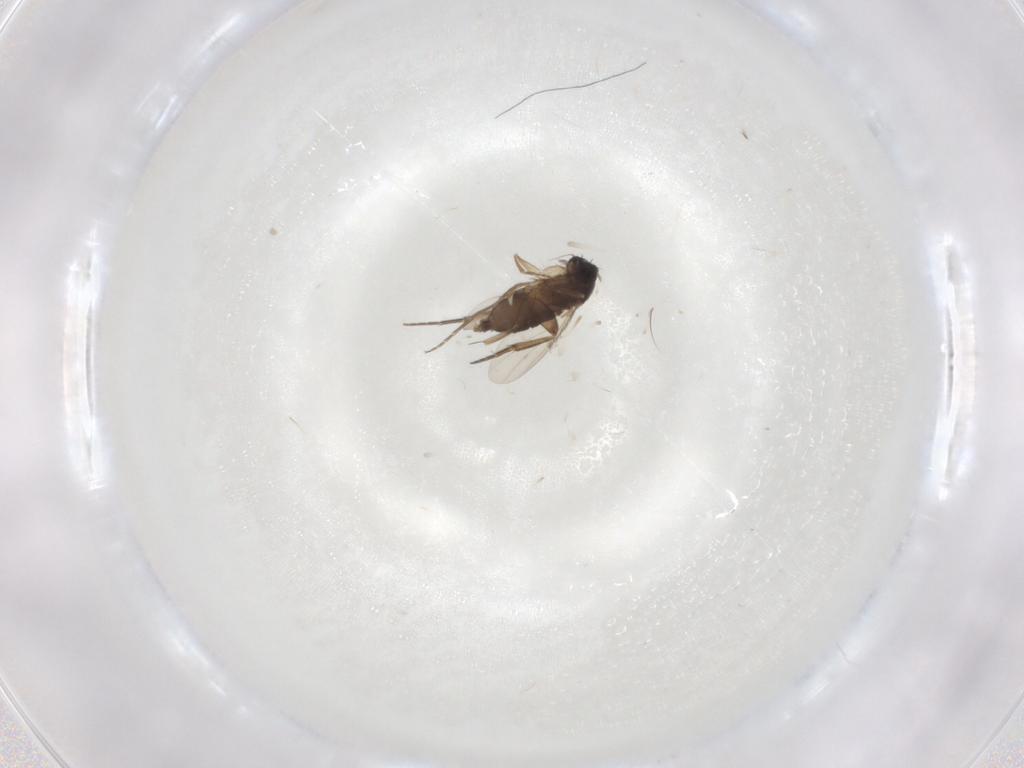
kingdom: Animalia
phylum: Arthropoda
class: Insecta
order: Diptera
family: Phoridae
